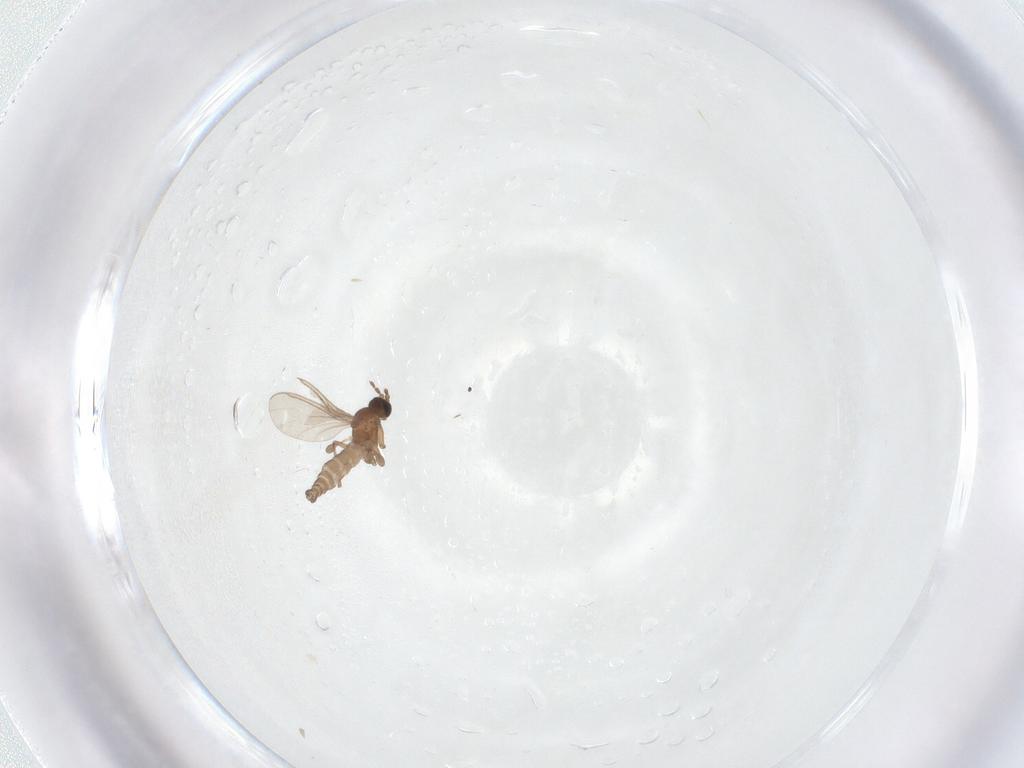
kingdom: Animalia
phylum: Arthropoda
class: Insecta
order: Diptera
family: Sciaridae
